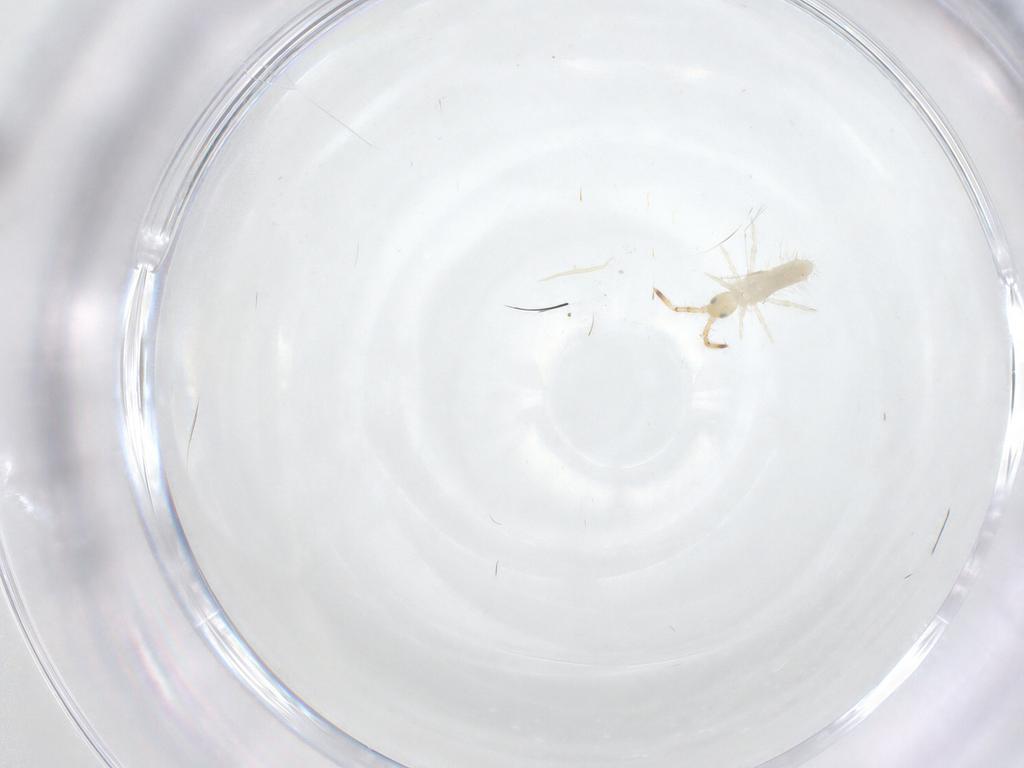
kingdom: Animalia
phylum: Arthropoda
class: Collembola
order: Entomobryomorpha
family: Entomobryidae
